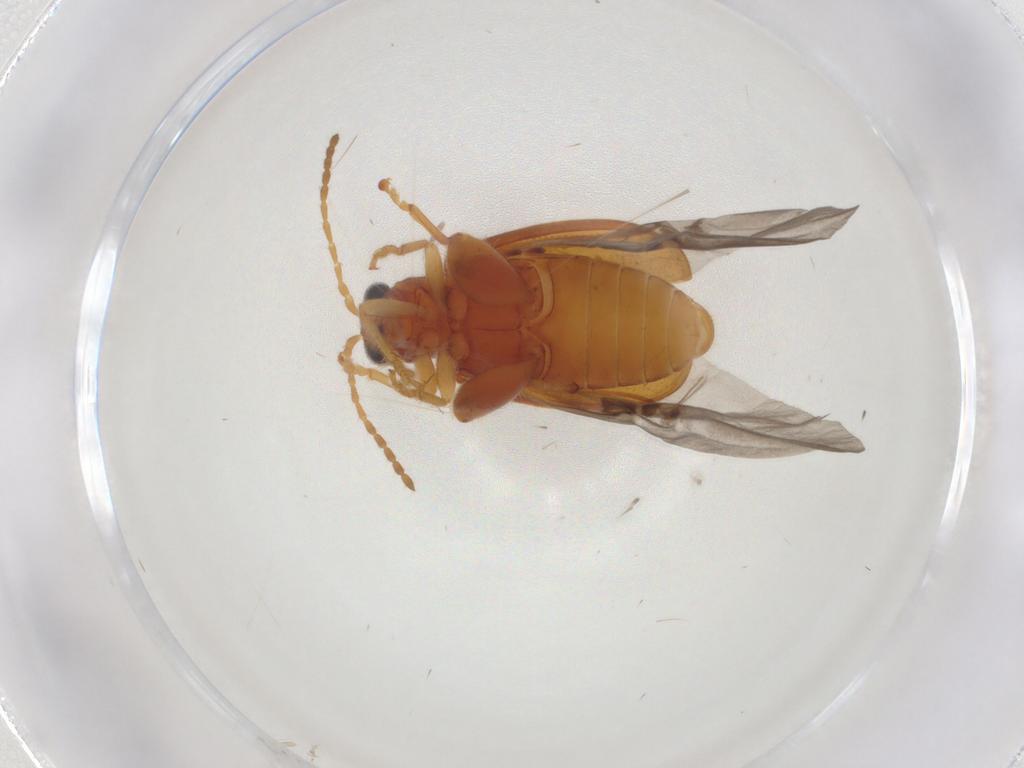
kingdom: Animalia
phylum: Arthropoda
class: Insecta
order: Coleoptera
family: Chrysomelidae
